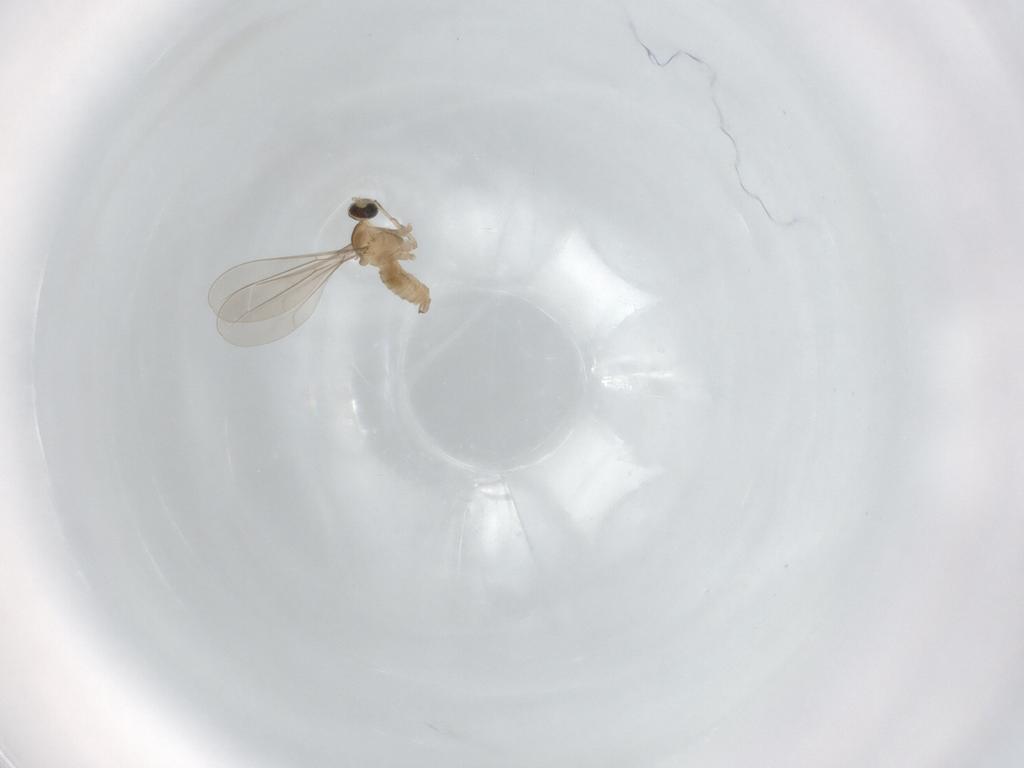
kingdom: Animalia
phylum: Arthropoda
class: Insecta
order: Diptera
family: Cecidomyiidae
